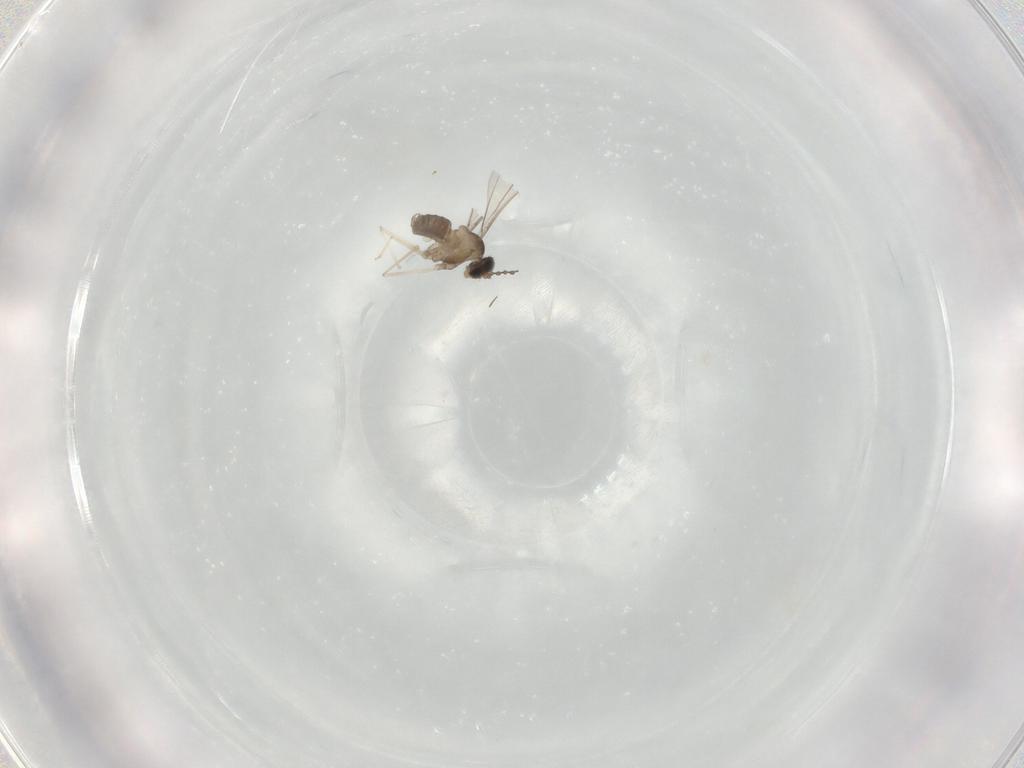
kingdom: Animalia
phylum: Arthropoda
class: Insecta
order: Diptera
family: Cecidomyiidae
